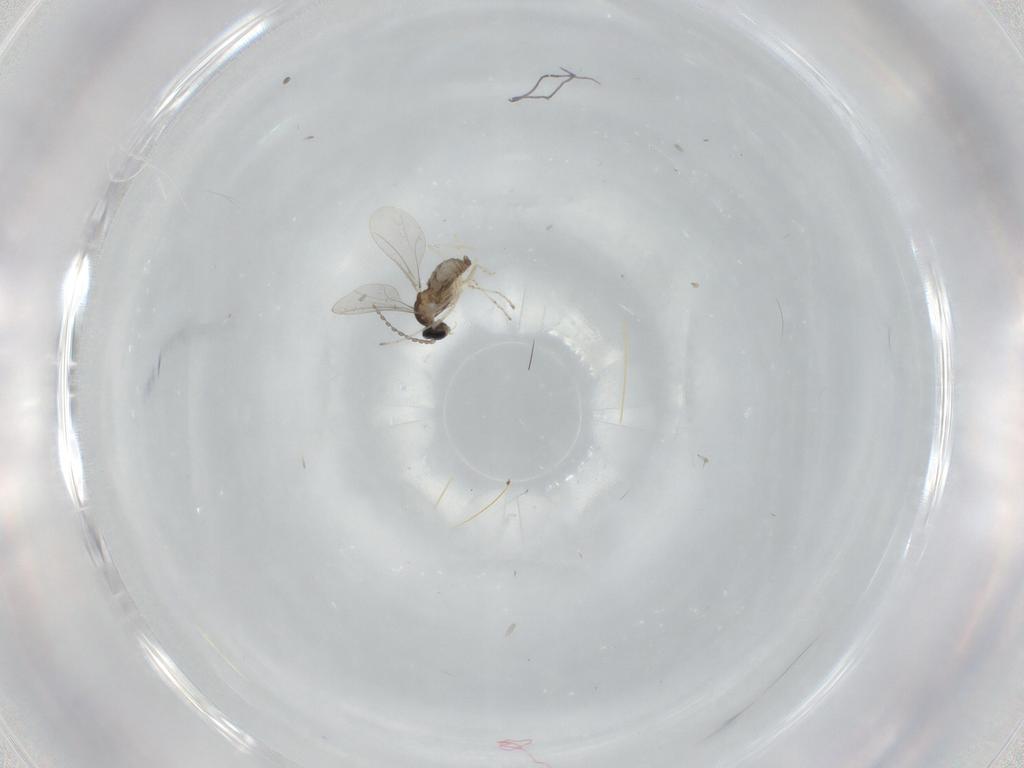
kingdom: Animalia
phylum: Arthropoda
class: Insecta
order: Diptera
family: Cecidomyiidae
